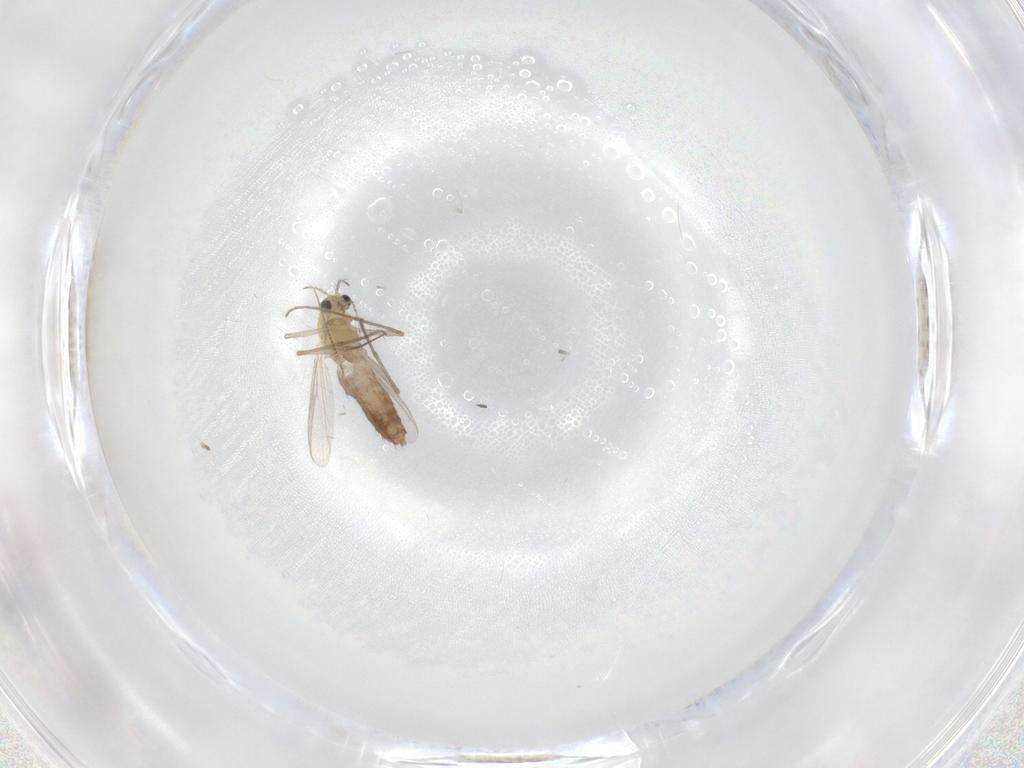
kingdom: Animalia
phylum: Arthropoda
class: Insecta
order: Diptera
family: Chironomidae
